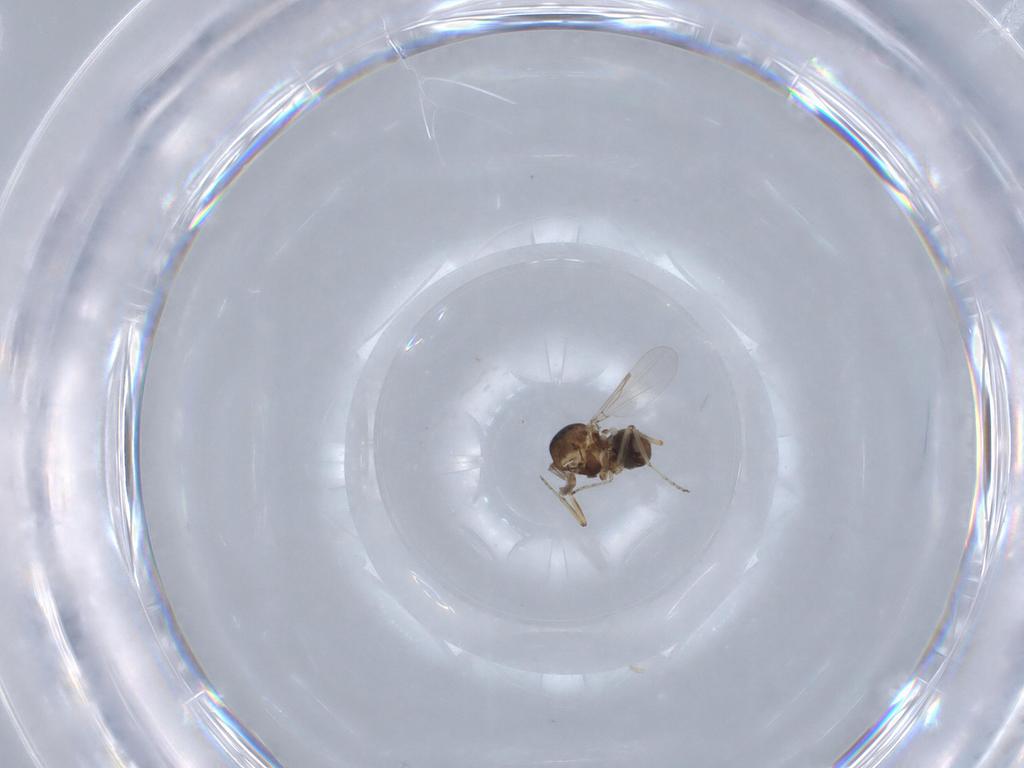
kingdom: Animalia
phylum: Arthropoda
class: Insecta
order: Diptera
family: Ceratopogonidae
